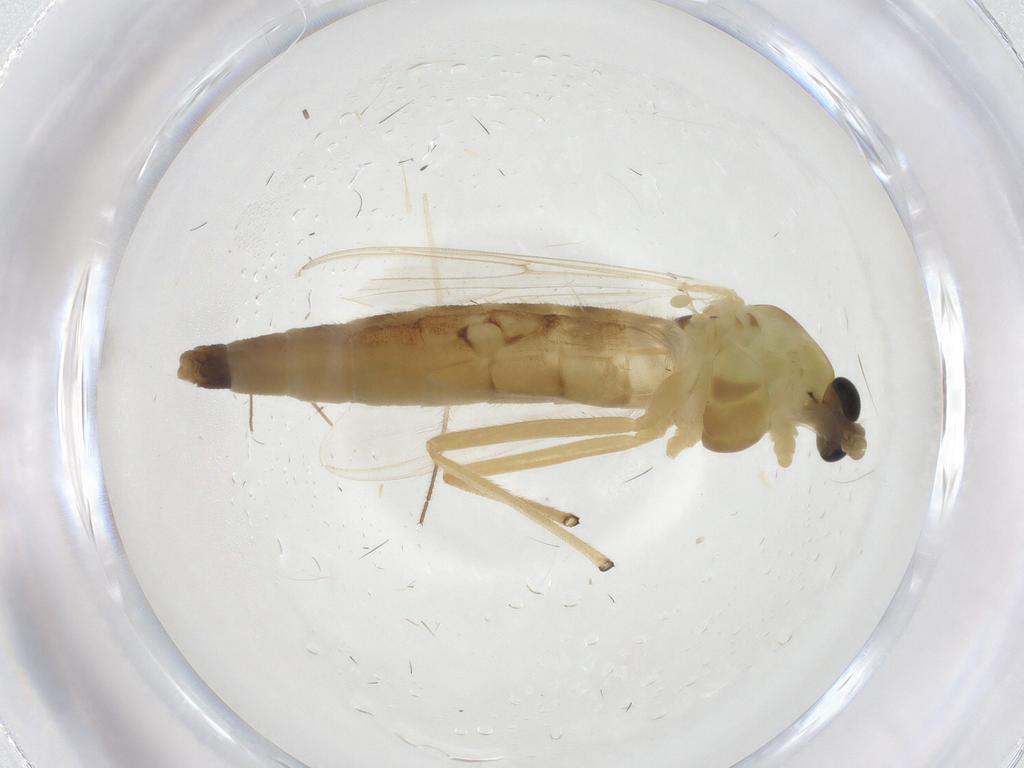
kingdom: Animalia
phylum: Arthropoda
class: Insecta
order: Diptera
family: Chironomidae
